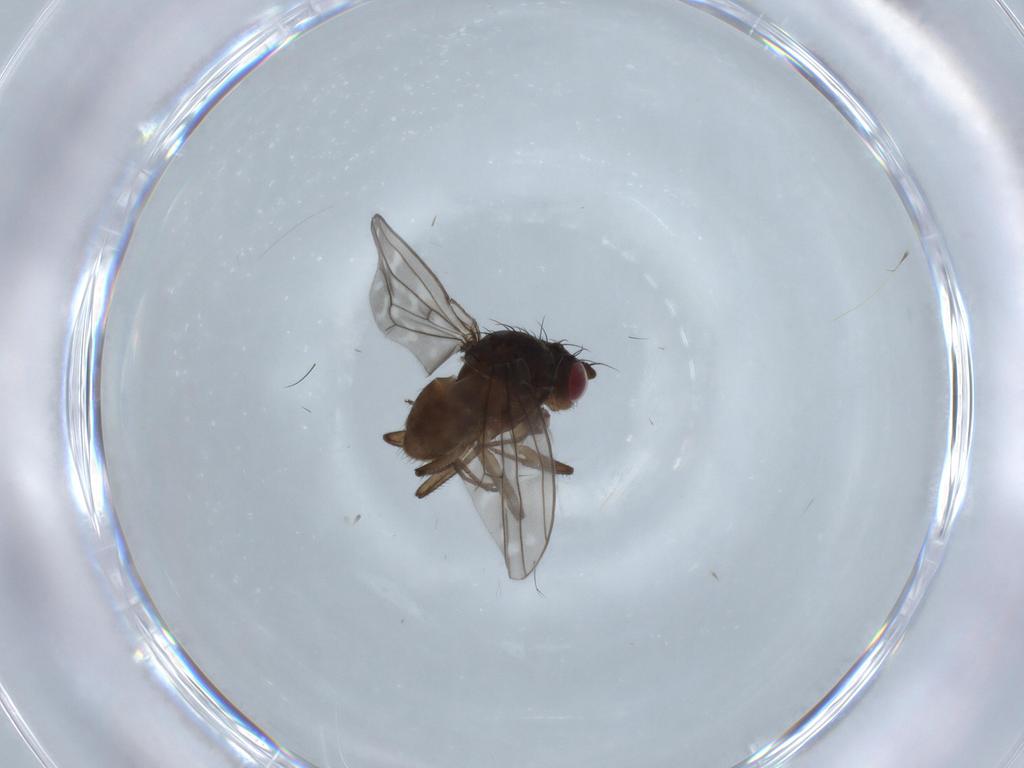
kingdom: Animalia
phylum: Arthropoda
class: Insecta
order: Diptera
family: Ephydridae
